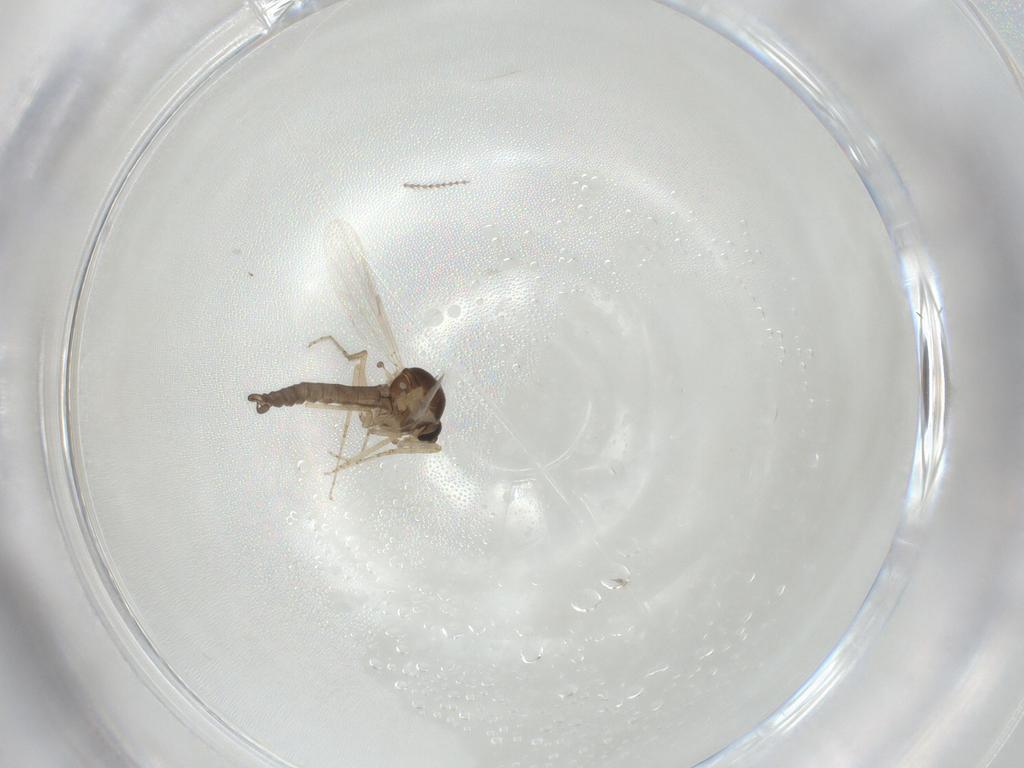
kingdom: Animalia
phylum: Arthropoda
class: Insecta
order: Diptera
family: Ceratopogonidae
